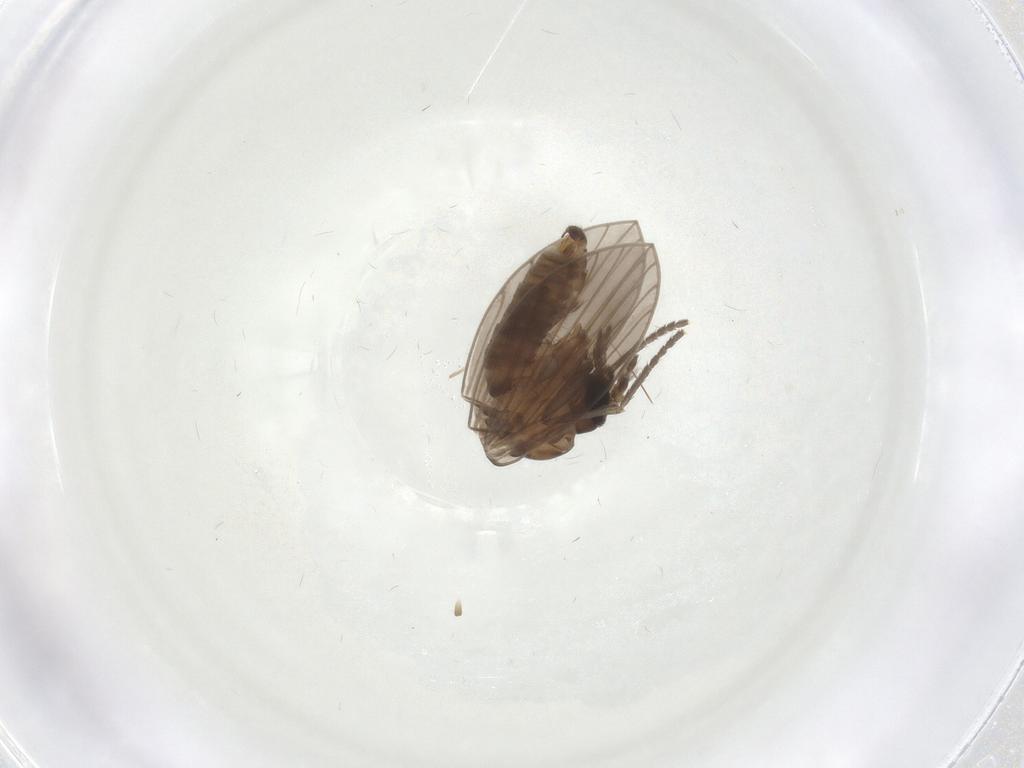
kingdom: Animalia
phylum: Arthropoda
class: Insecta
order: Diptera
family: Psychodidae
